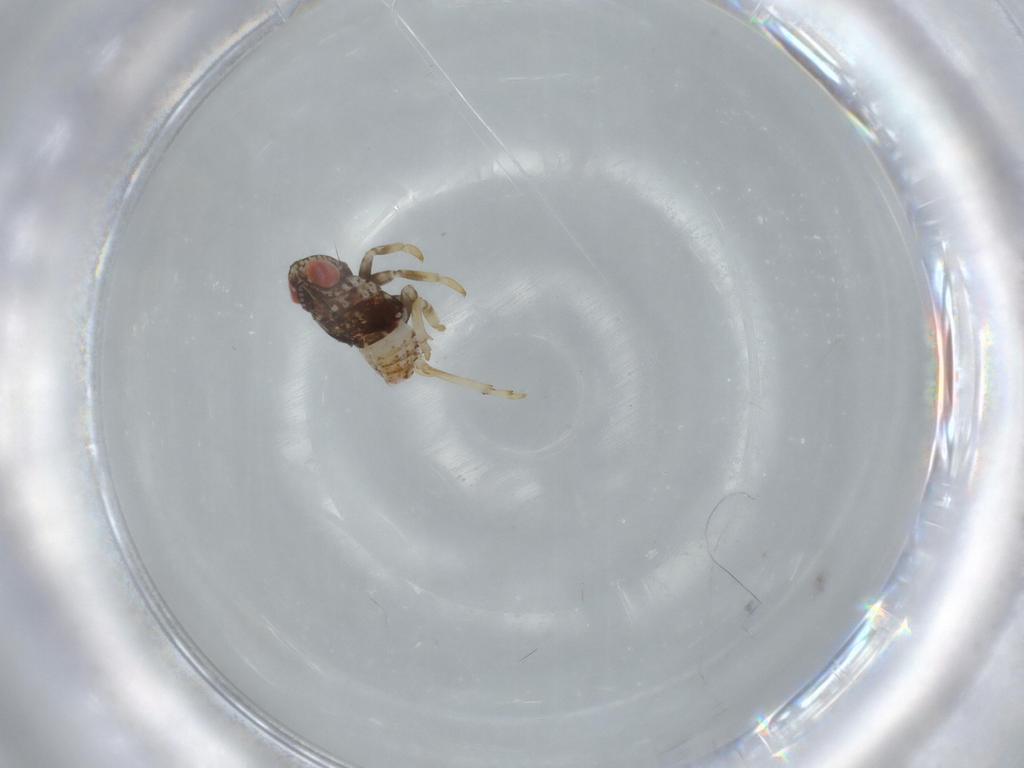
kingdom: Animalia
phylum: Arthropoda
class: Insecta
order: Hemiptera
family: Issidae
